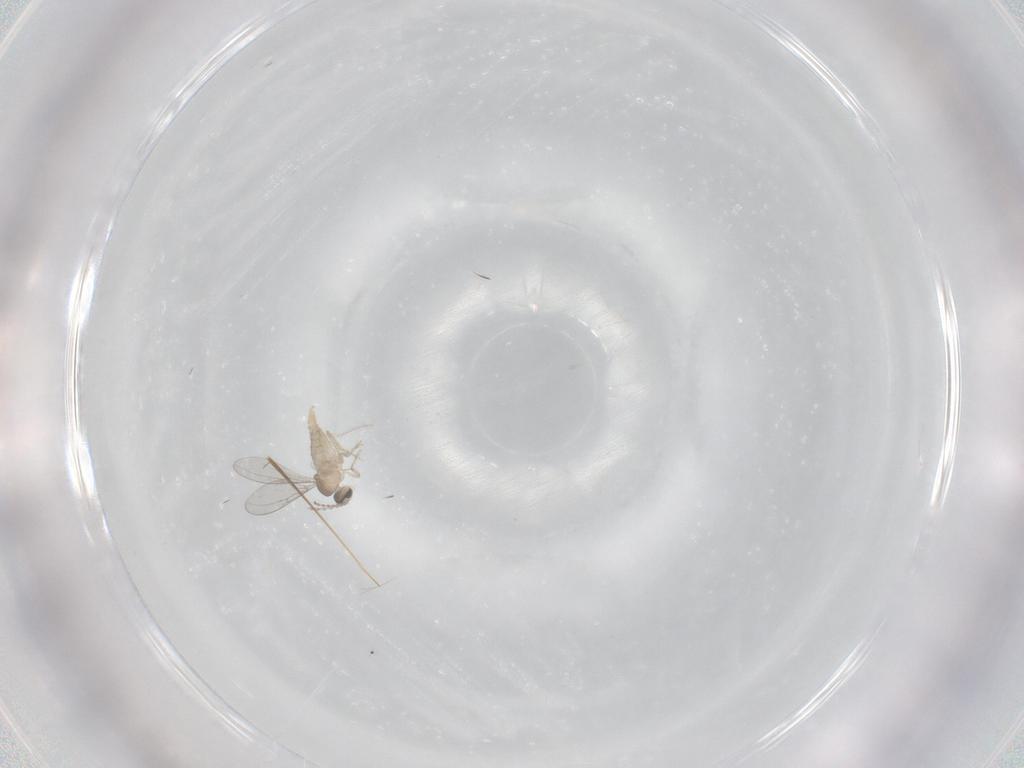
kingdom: Animalia
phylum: Arthropoda
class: Insecta
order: Diptera
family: Cecidomyiidae
